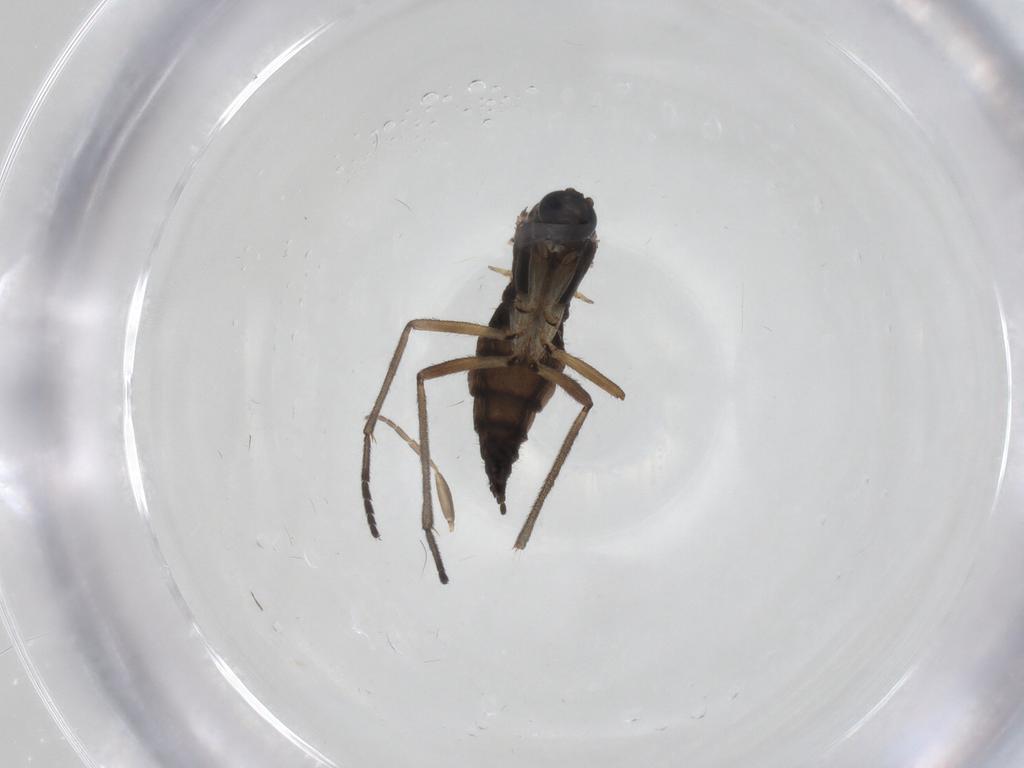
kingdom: Animalia
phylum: Arthropoda
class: Insecta
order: Diptera
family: Sciaridae
